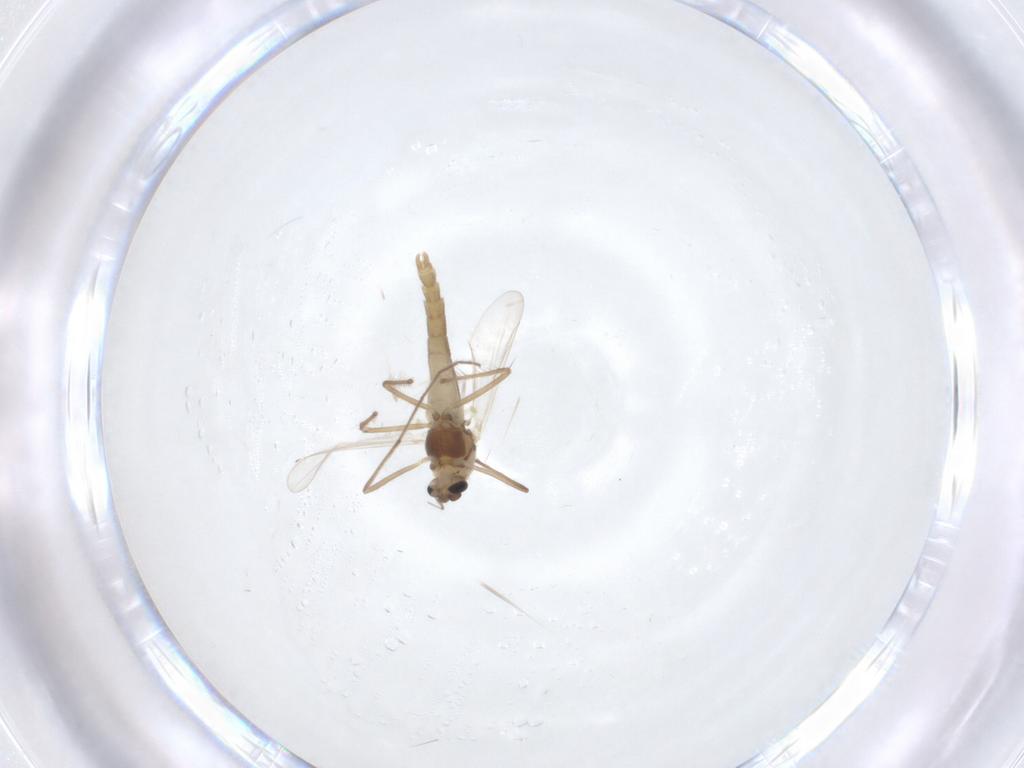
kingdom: Animalia
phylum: Arthropoda
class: Insecta
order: Diptera
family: Chironomidae
